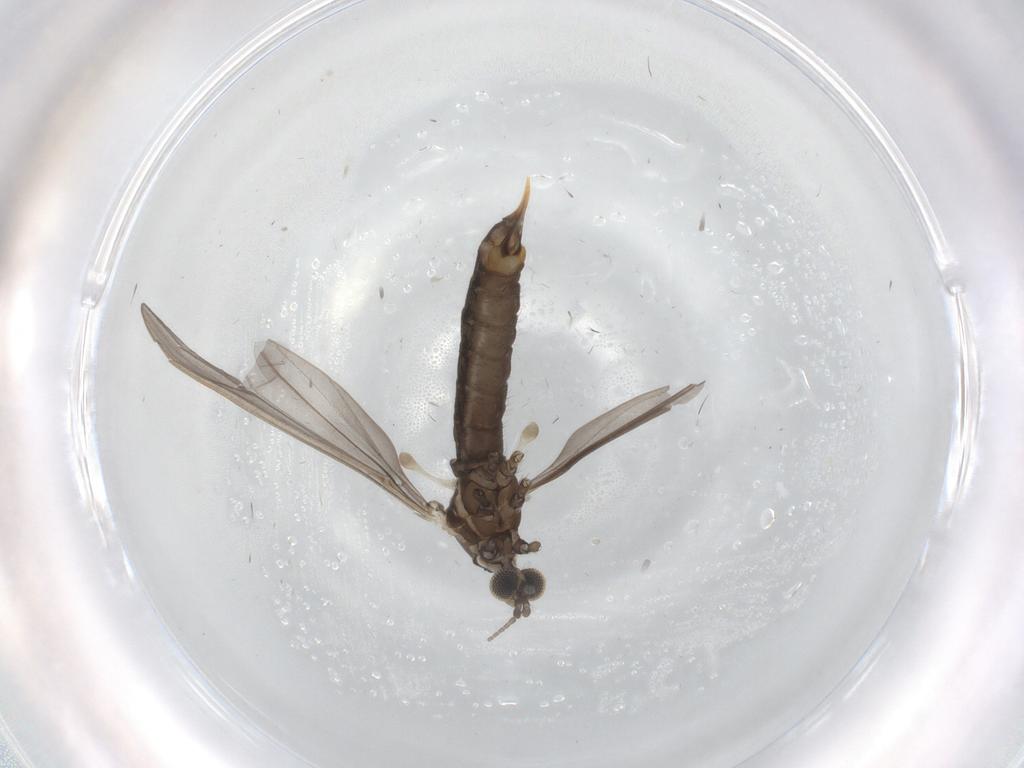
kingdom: Animalia
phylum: Arthropoda
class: Insecta
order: Diptera
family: Limoniidae
